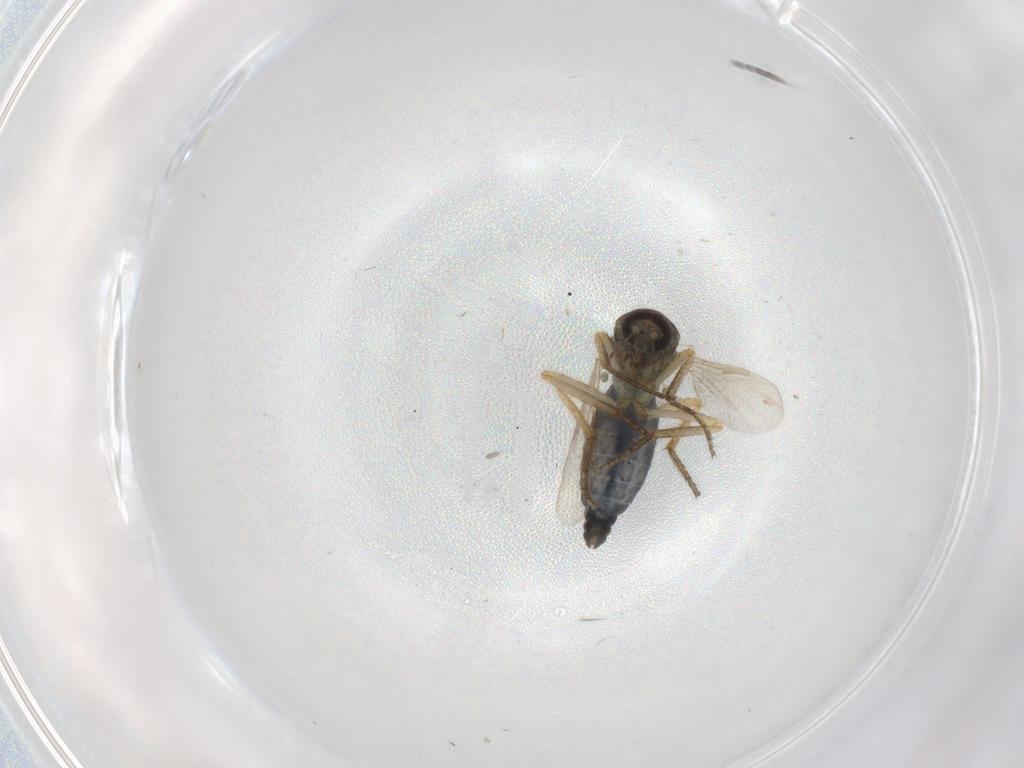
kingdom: Animalia
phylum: Arthropoda
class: Insecta
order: Diptera
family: Ceratopogonidae
